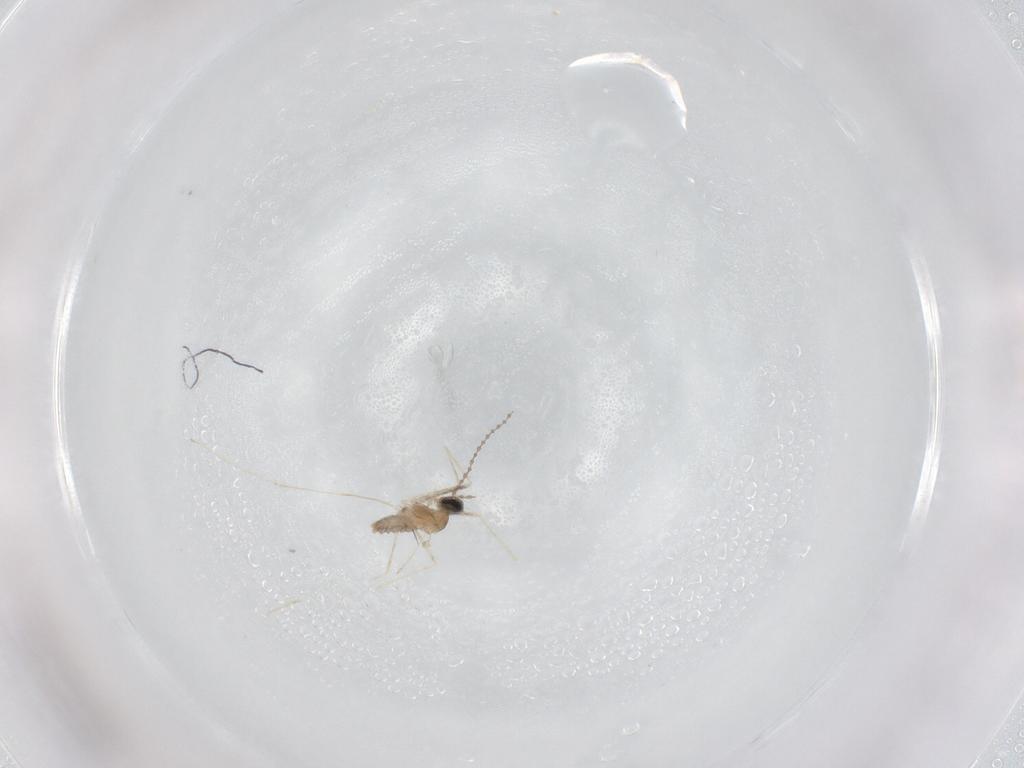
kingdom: Animalia
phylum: Arthropoda
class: Insecta
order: Diptera
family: Cecidomyiidae
